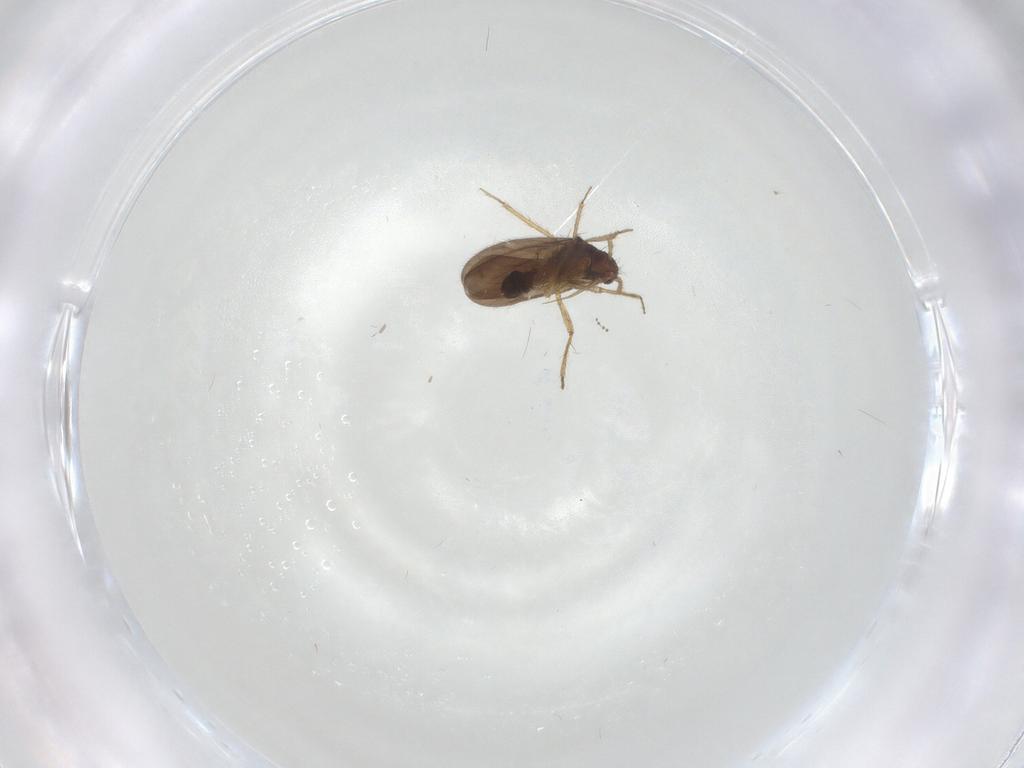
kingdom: Animalia
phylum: Arthropoda
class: Insecta
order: Hemiptera
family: Ceratocombidae
